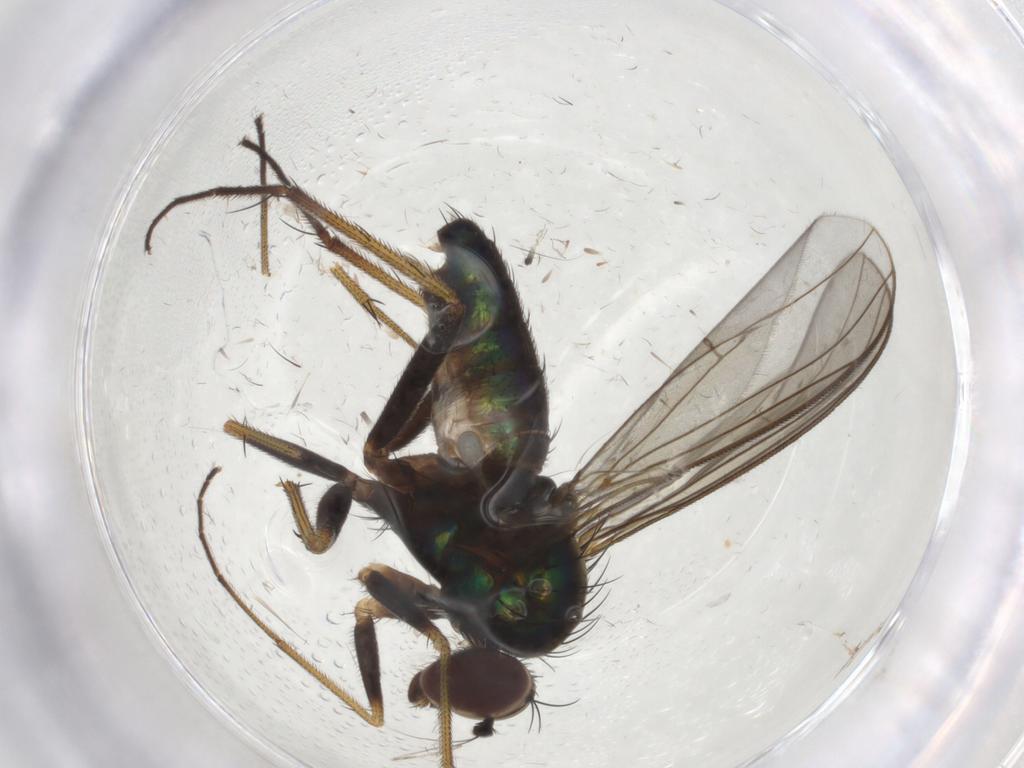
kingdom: Animalia
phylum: Arthropoda
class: Insecta
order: Diptera
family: Dolichopodidae
